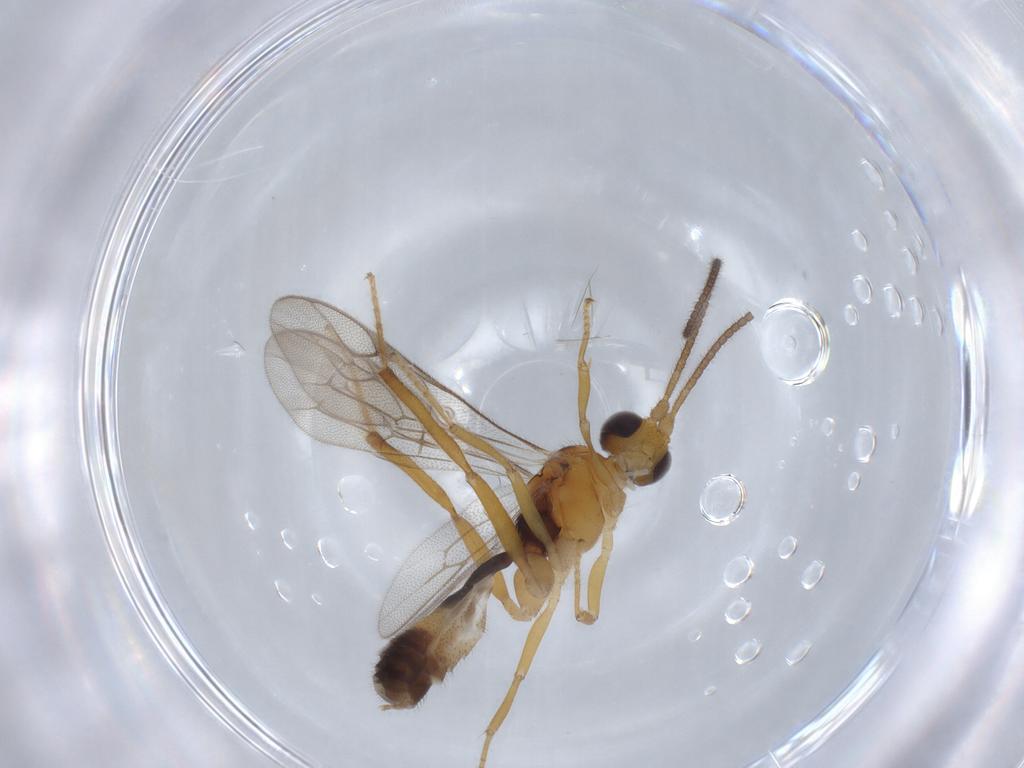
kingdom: Animalia
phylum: Arthropoda
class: Insecta
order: Hymenoptera
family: Ichneumonidae
